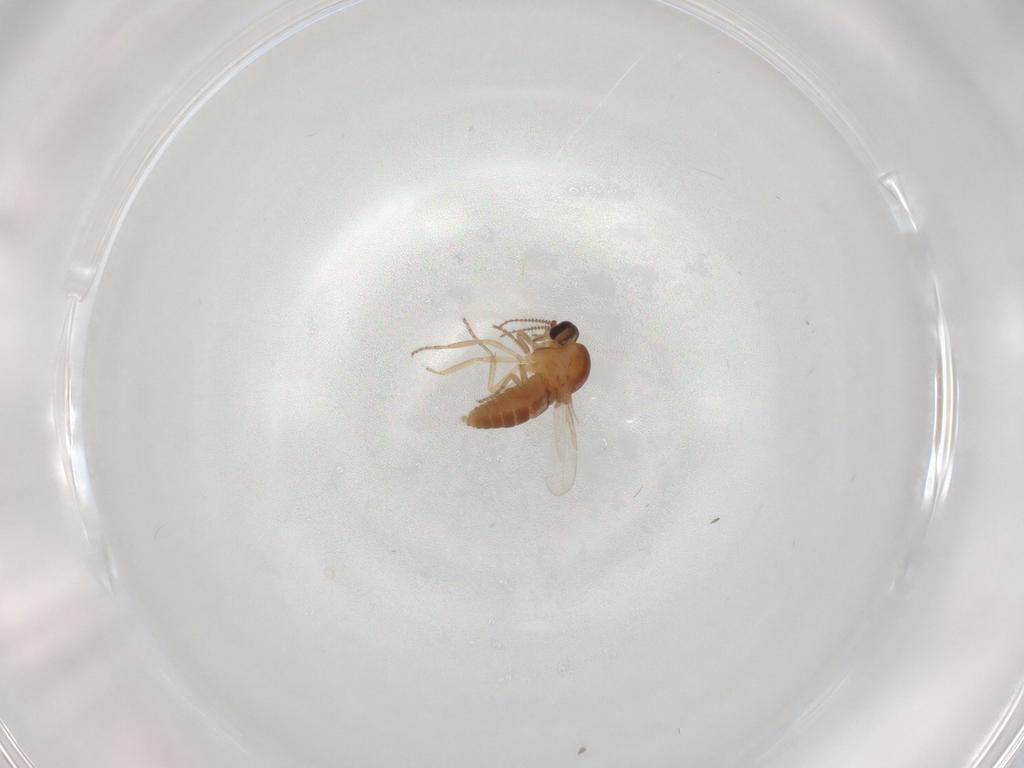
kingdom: Animalia
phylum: Arthropoda
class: Insecta
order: Diptera
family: Ceratopogonidae
